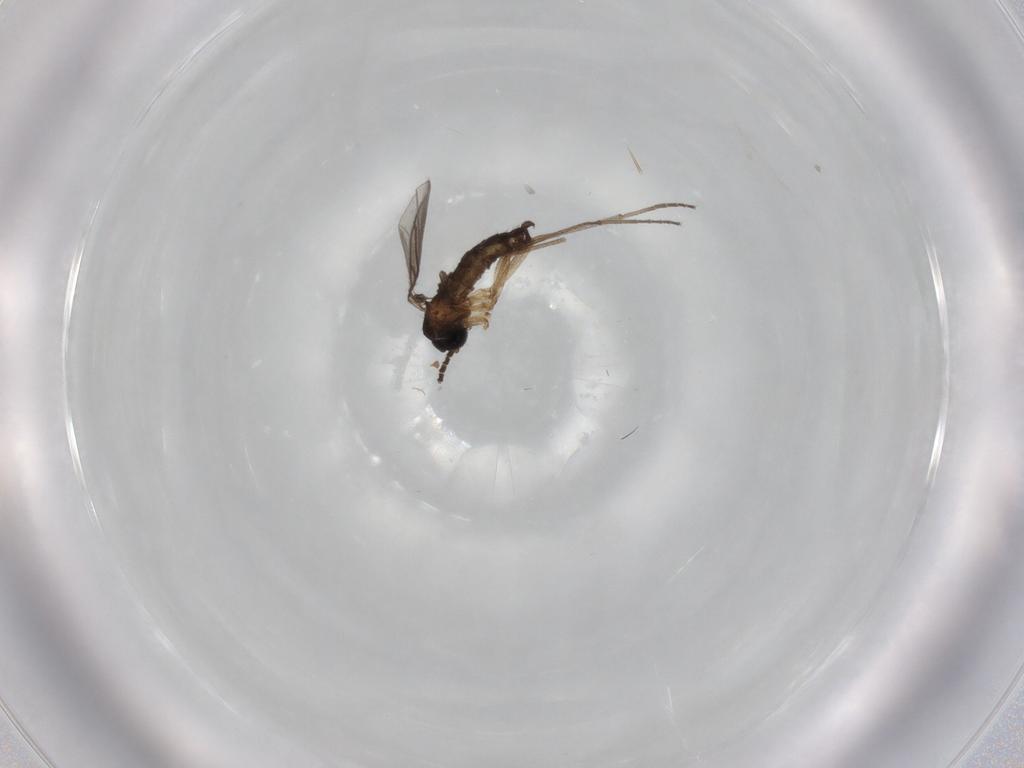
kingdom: Animalia
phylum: Arthropoda
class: Insecta
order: Diptera
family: Sciaridae
